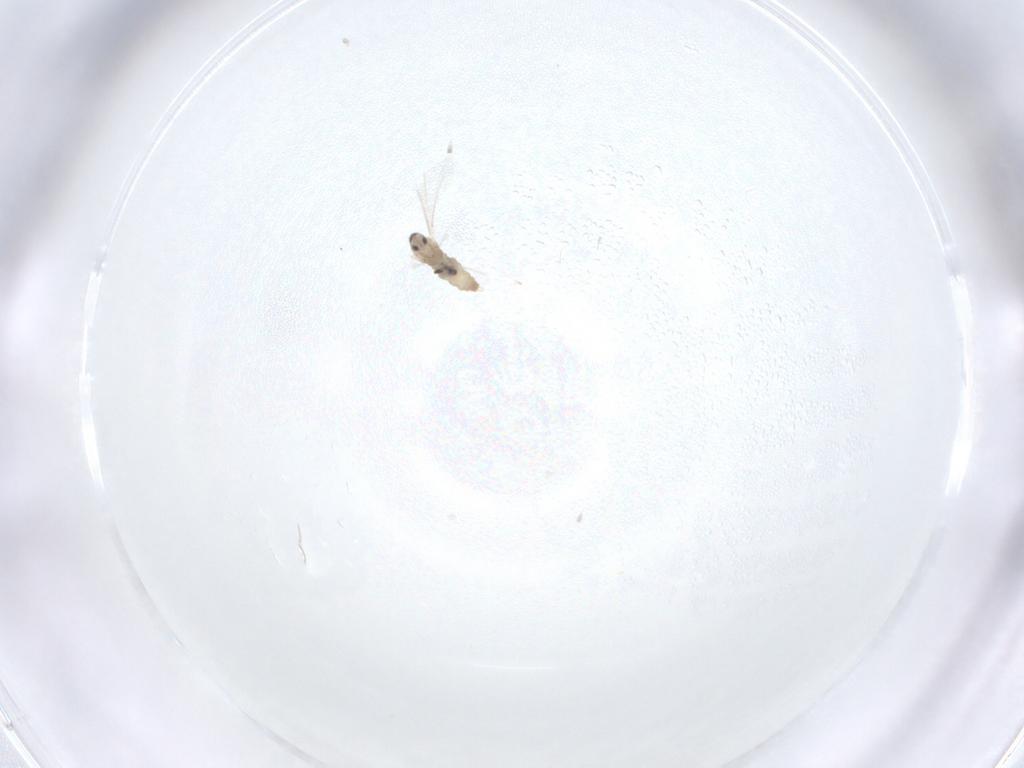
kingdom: Animalia
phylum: Arthropoda
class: Insecta
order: Diptera
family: Cecidomyiidae
